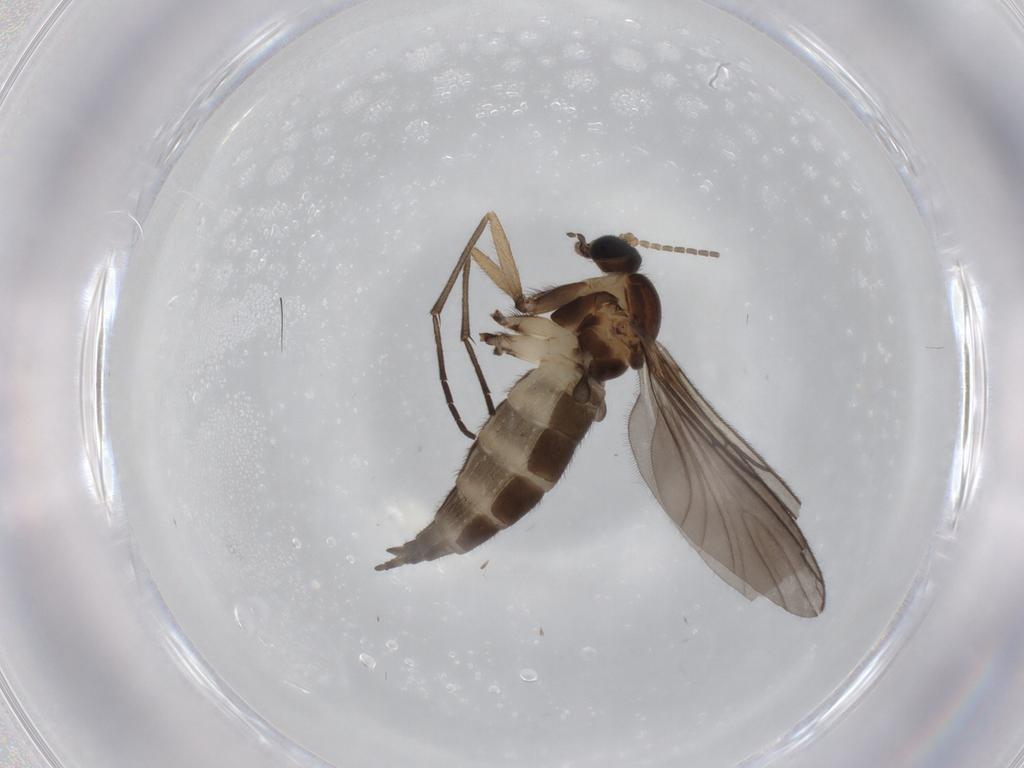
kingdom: Animalia
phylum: Arthropoda
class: Insecta
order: Diptera
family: Sciaridae
